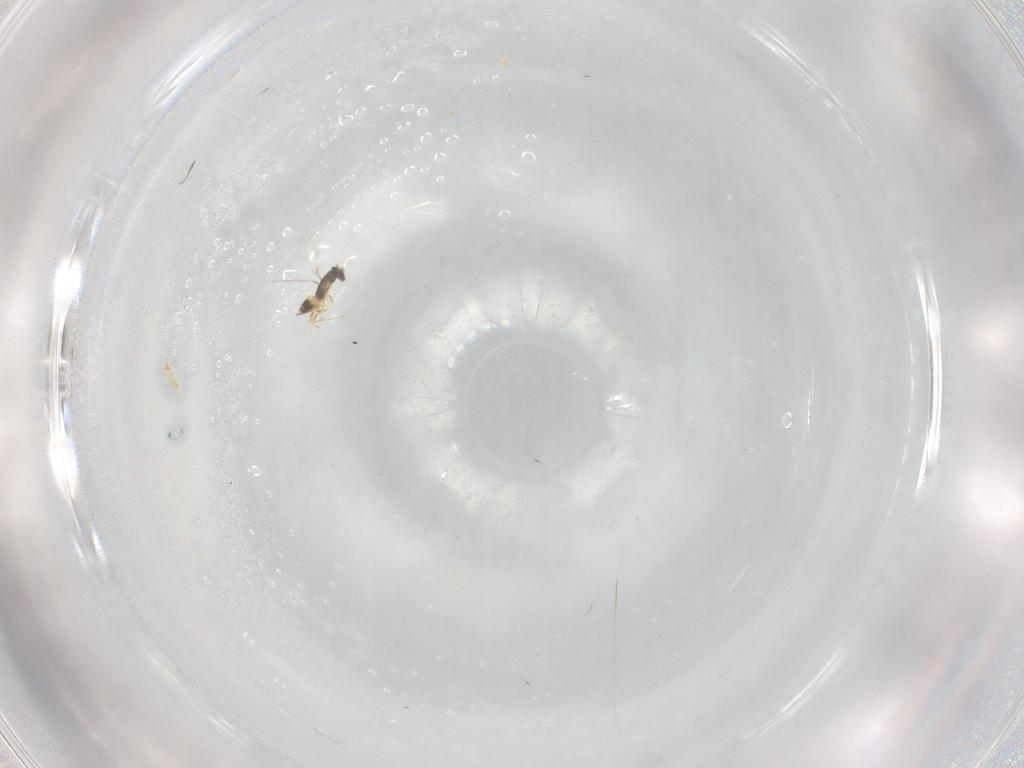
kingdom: Animalia
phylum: Arthropoda
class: Insecta
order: Hymenoptera
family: Mymaridae
